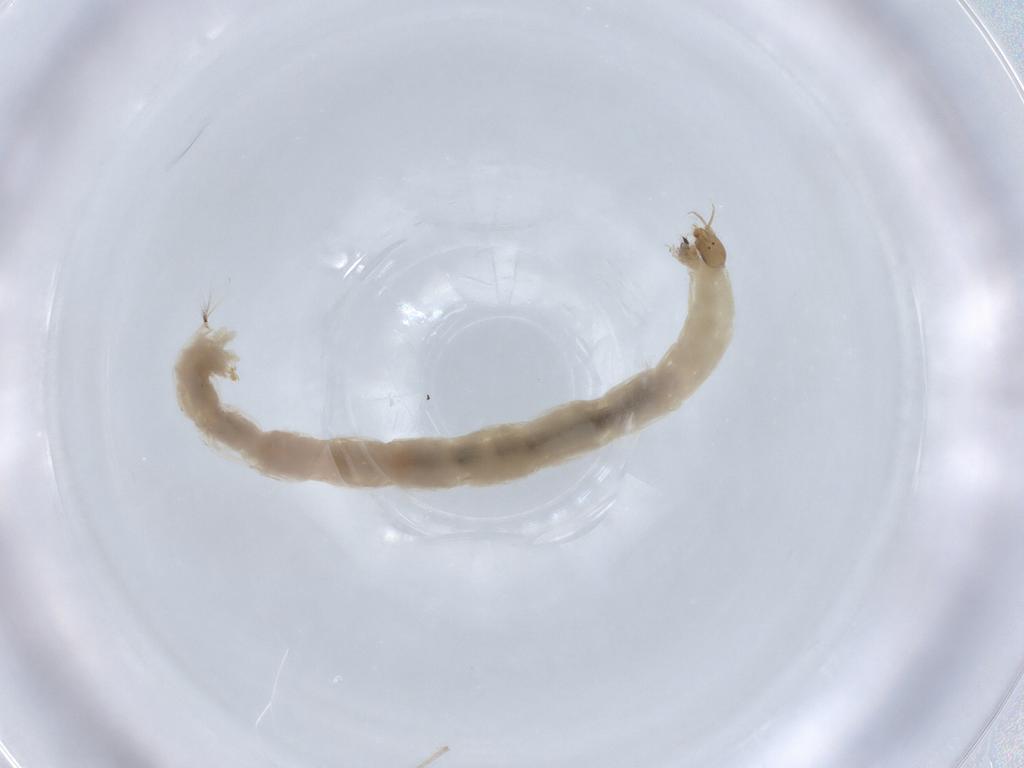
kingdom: Animalia
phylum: Arthropoda
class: Insecta
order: Diptera
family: Chironomidae
